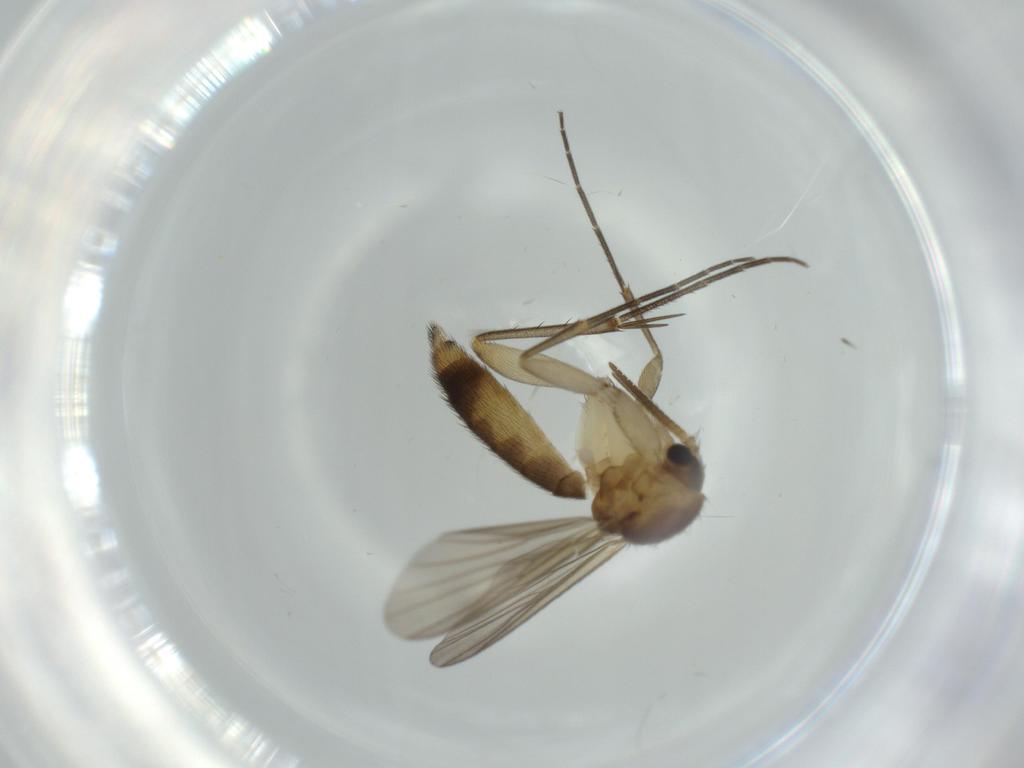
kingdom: Animalia
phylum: Arthropoda
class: Insecta
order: Diptera
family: Mycetophilidae
